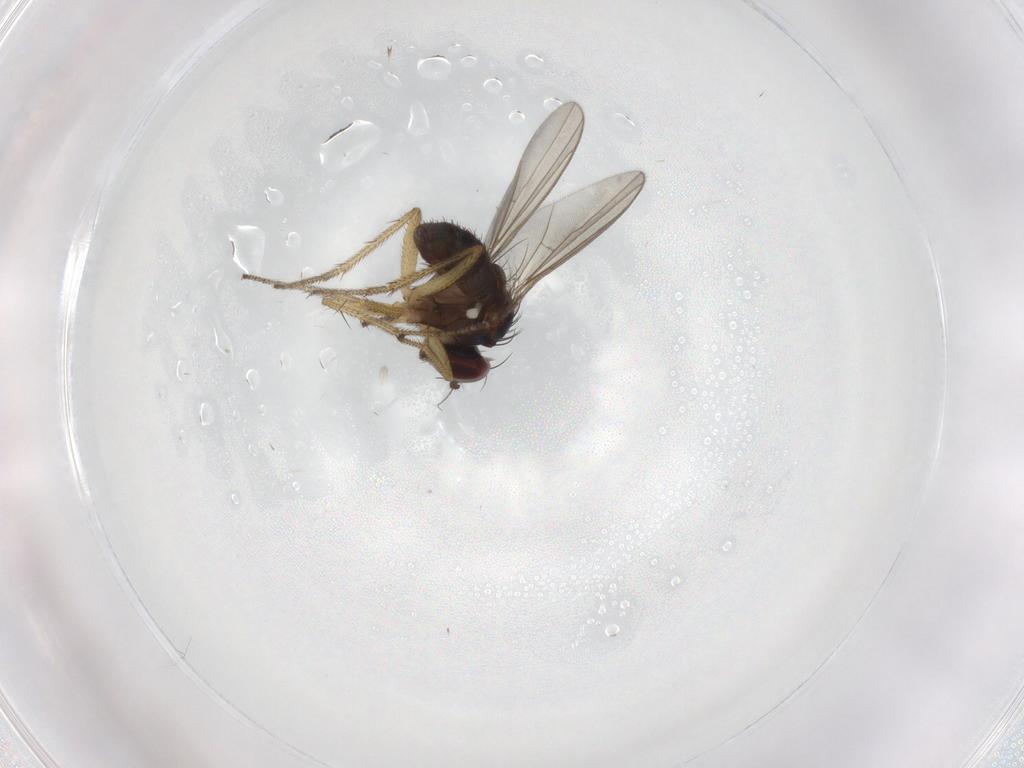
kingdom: Animalia
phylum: Arthropoda
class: Insecta
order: Diptera
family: Dolichopodidae
